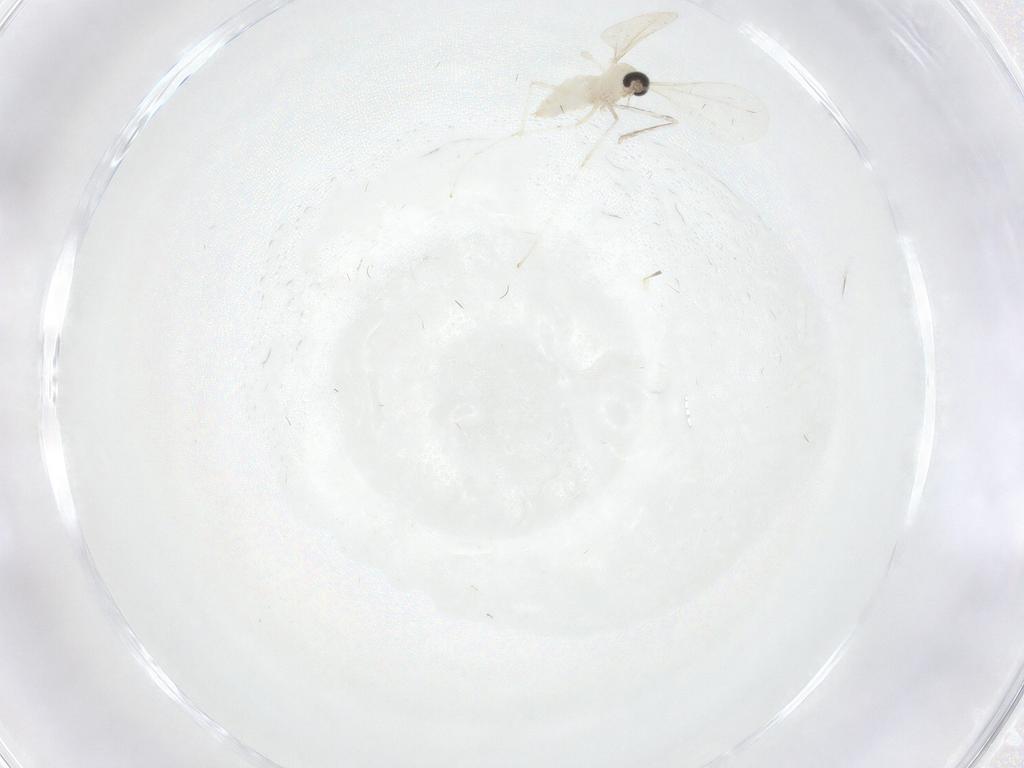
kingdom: Animalia
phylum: Arthropoda
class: Insecta
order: Diptera
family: Cecidomyiidae
